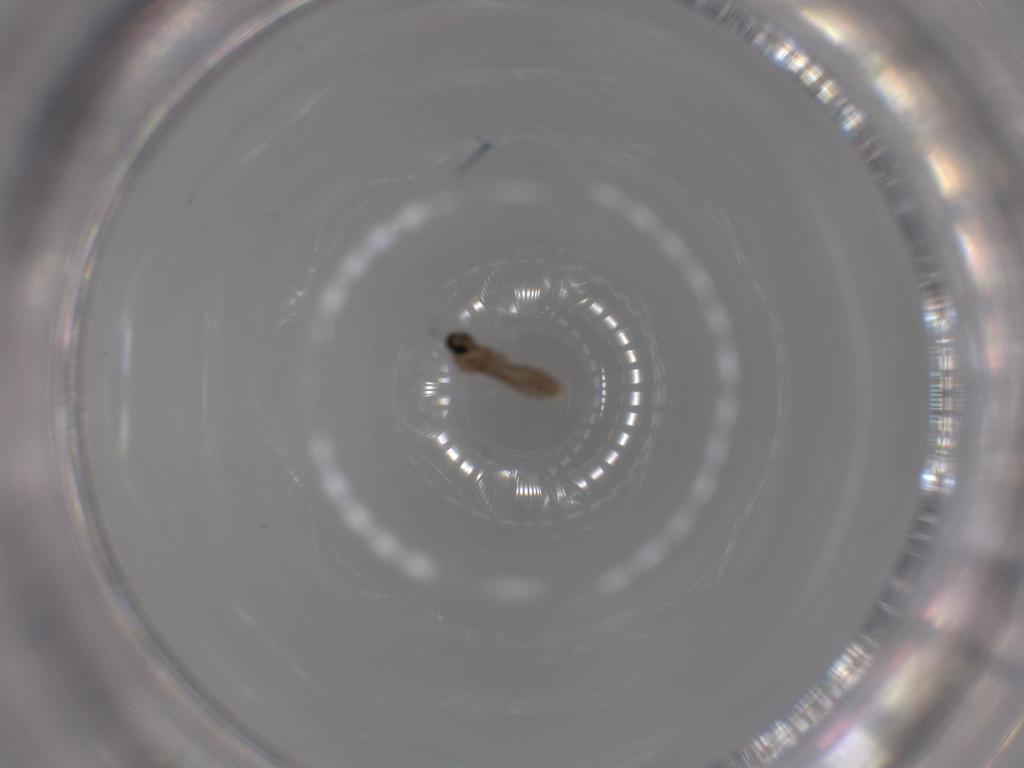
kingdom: Animalia
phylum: Arthropoda
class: Insecta
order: Diptera
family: Cecidomyiidae
